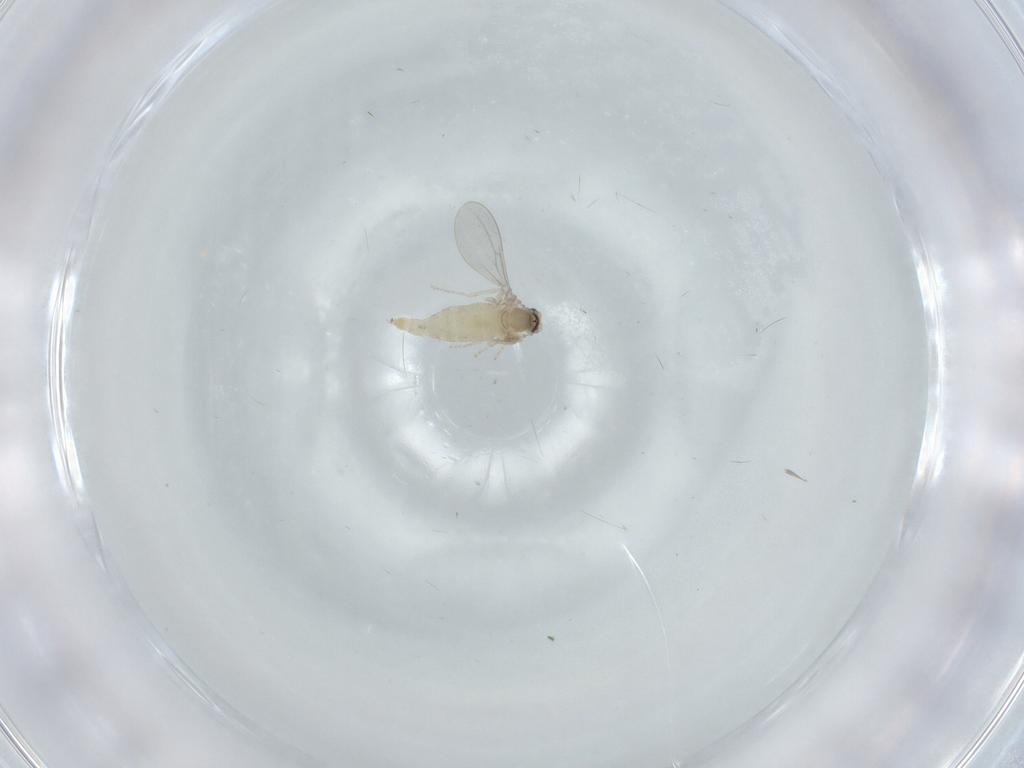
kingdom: Animalia
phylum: Arthropoda
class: Insecta
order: Diptera
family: Cecidomyiidae
